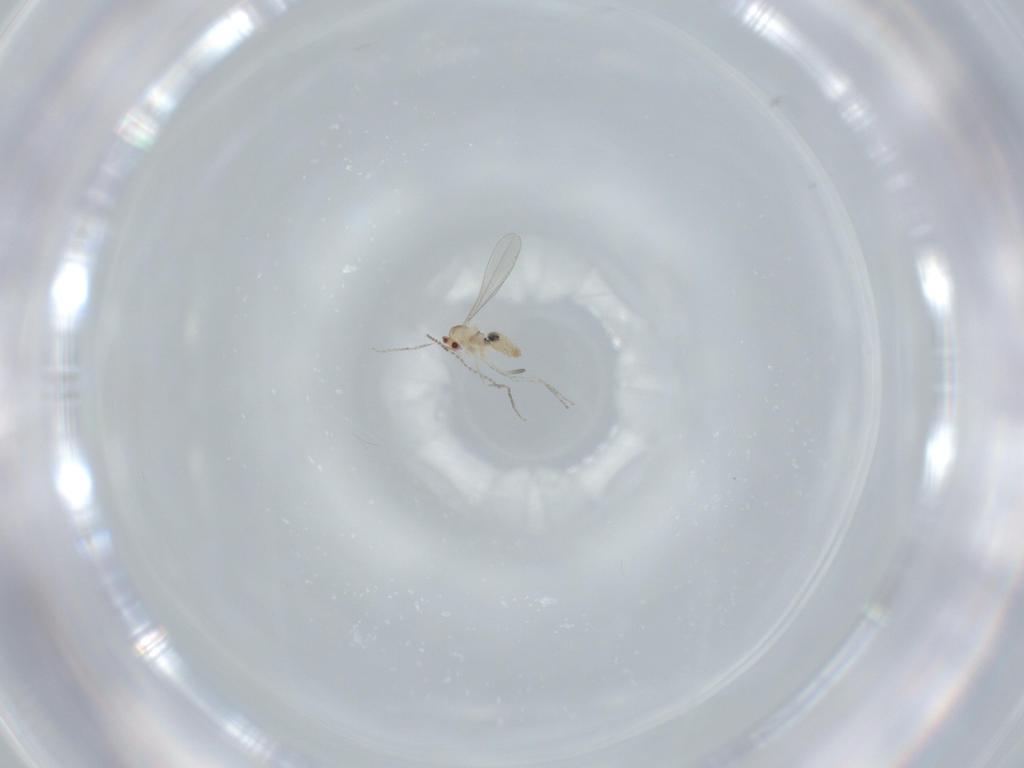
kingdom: Animalia
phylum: Arthropoda
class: Insecta
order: Diptera
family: Cecidomyiidae
